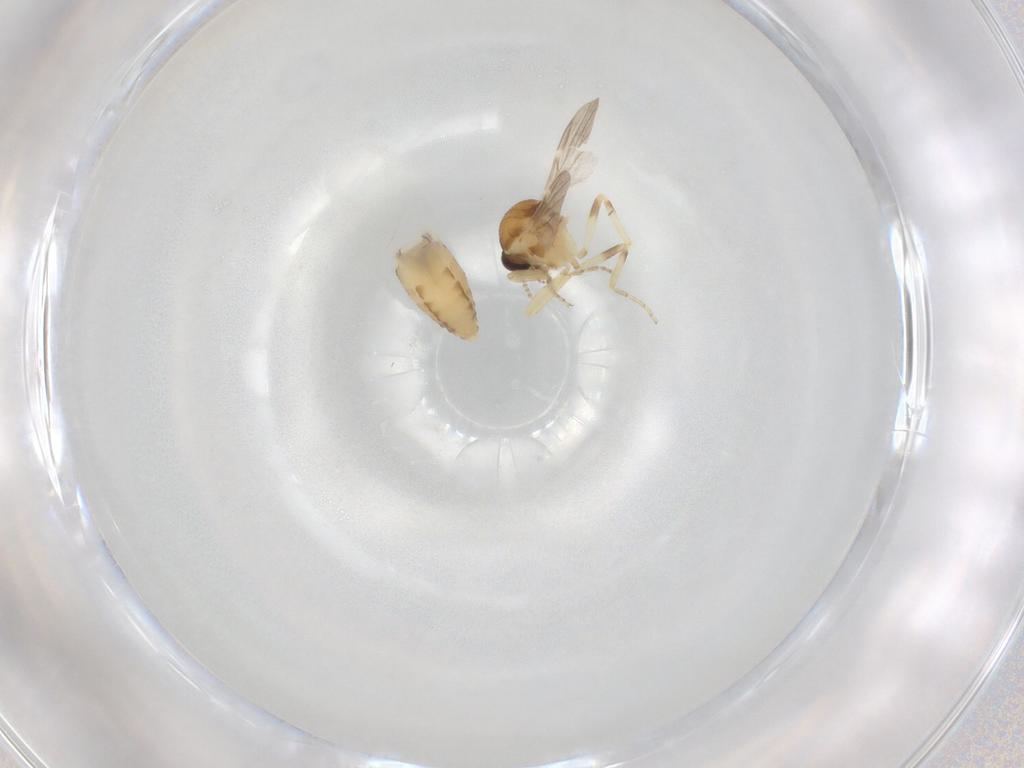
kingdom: Animalia
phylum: Arthropoda
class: Insecta
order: Diptera
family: Ceratopogonidae
